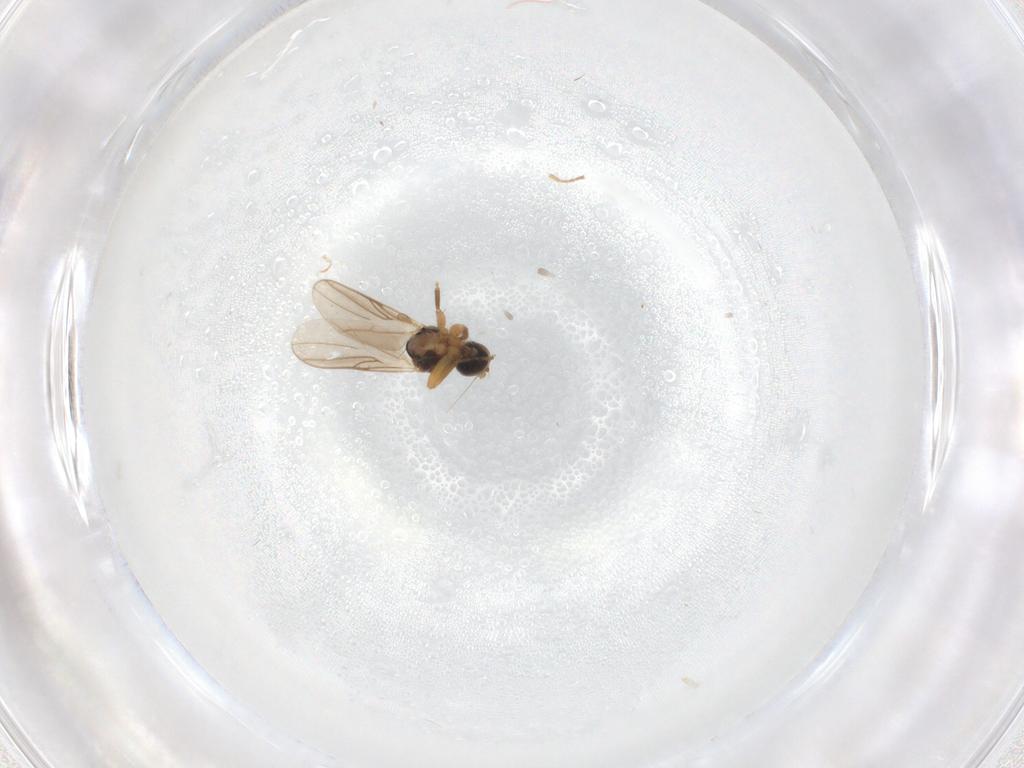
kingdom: Animalia
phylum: Arthropoda
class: Insecta
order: Diptera
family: Hybotidae
